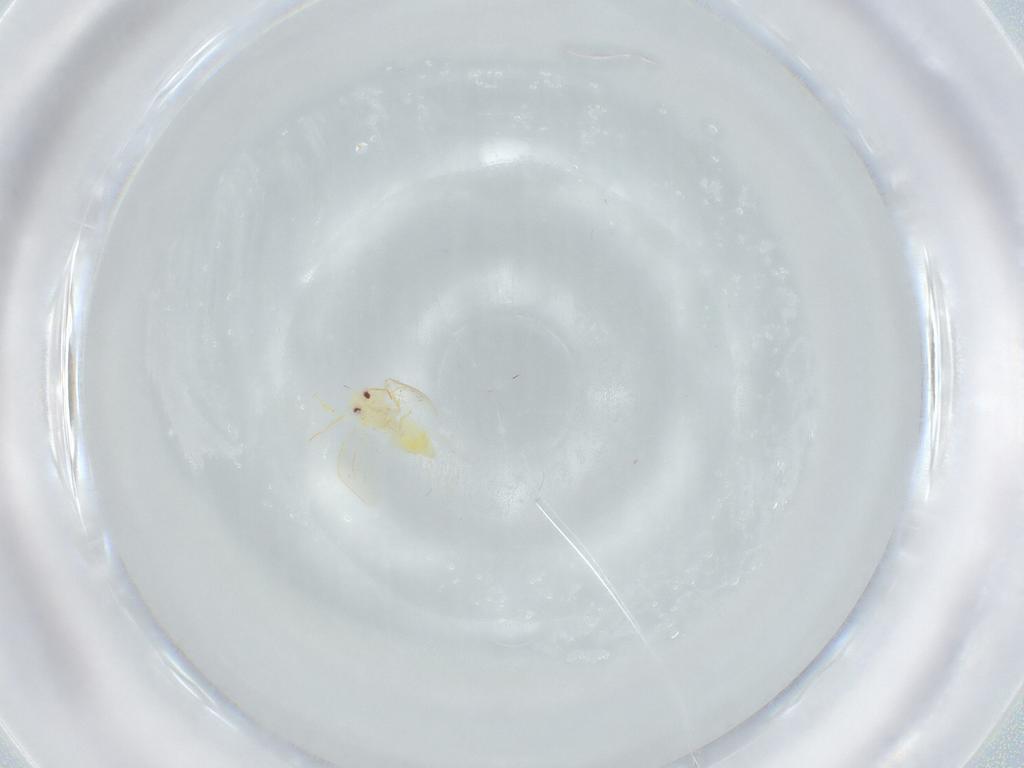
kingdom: Animalia
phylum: Arthropoda
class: Insecta
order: Hemiptera
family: Aleyrodidae
